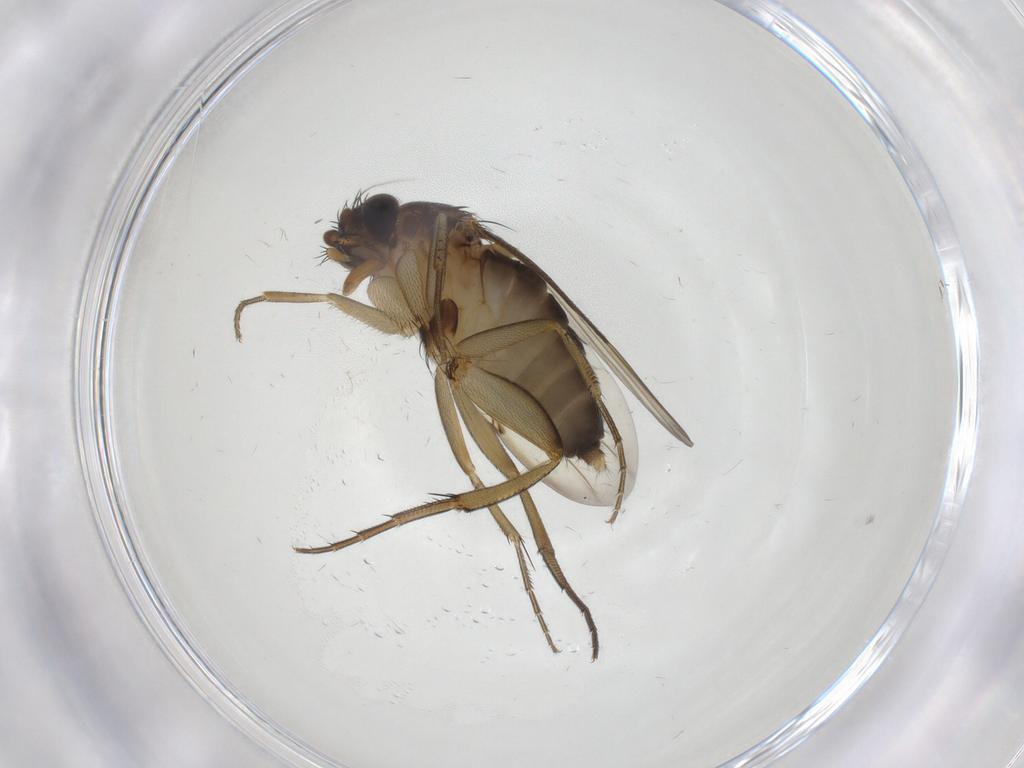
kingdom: Animalia
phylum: Arthropoda
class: Insecta
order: Diptera
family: Psychodidae
